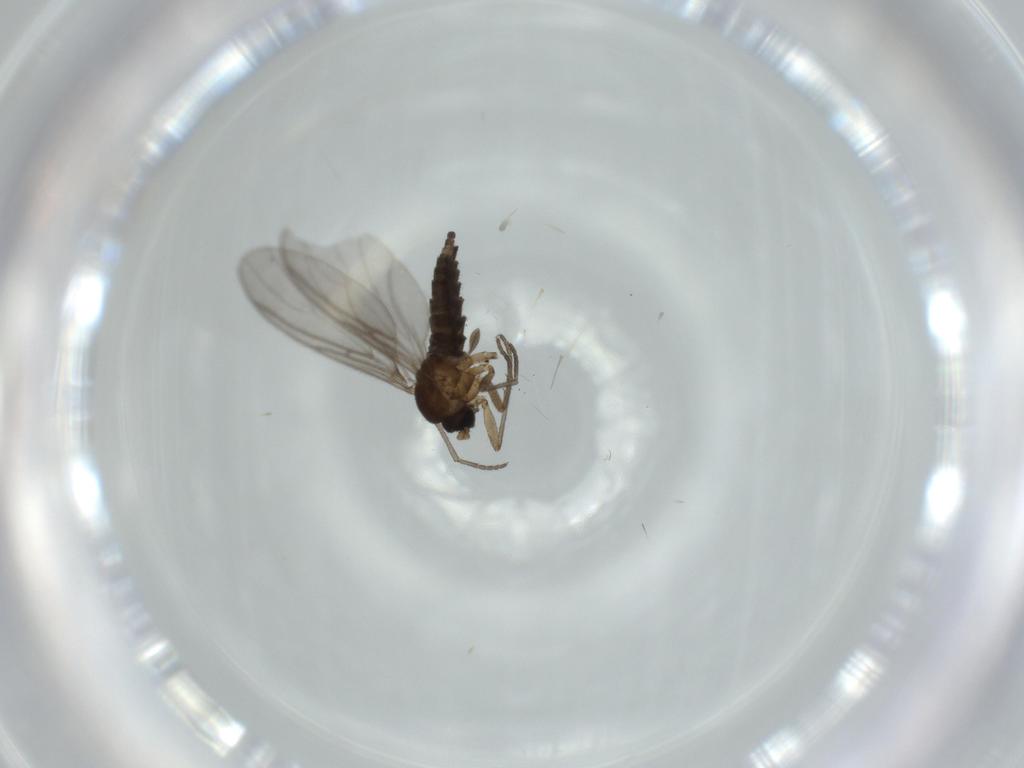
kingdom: Animalia
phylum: Arthropoda
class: Insecta
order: Diptera
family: Sciaridae
